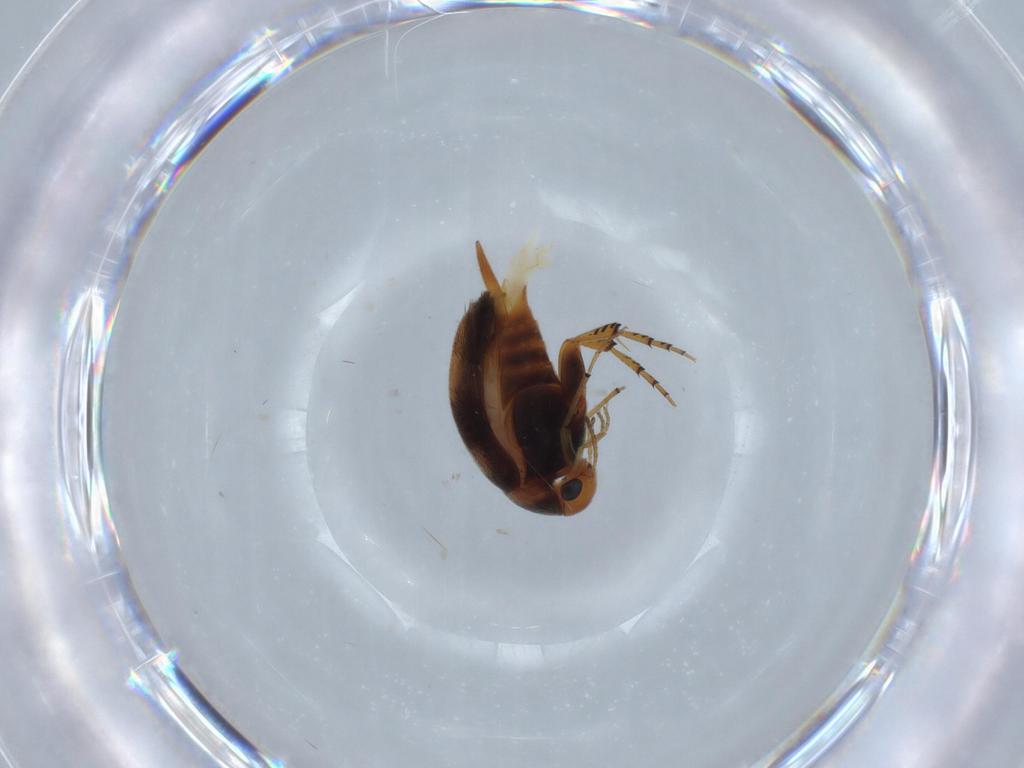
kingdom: Animalia
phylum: Arthropoda
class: Insecta
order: Coleoptera
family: Mordellidae
